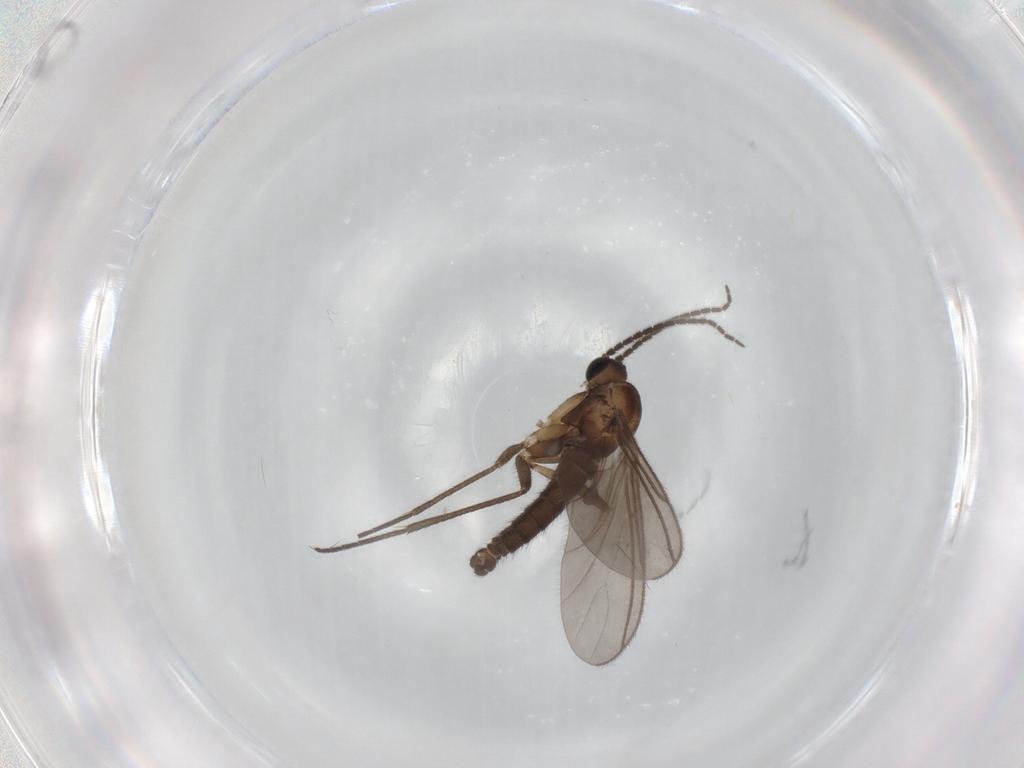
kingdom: Animalia
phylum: Arthropoda
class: Insecta
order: Diptera
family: Sciaridae
